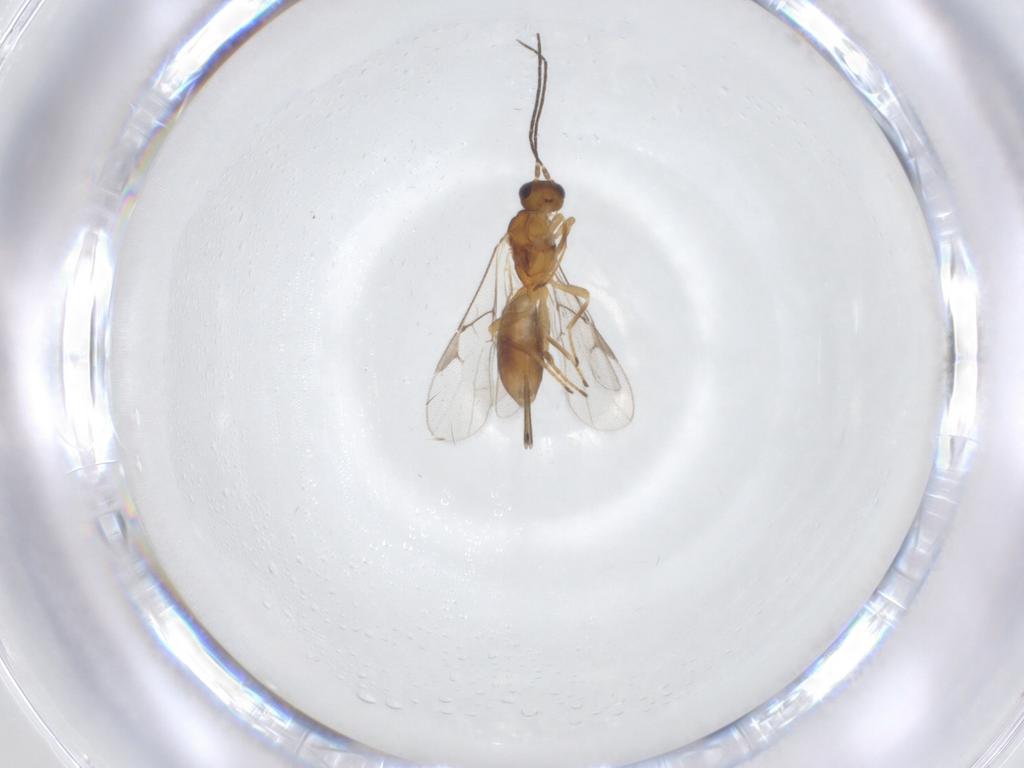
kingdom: Animalia
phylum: Arthropoda
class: Insecta
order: Hymenoptera
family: Braconidae
